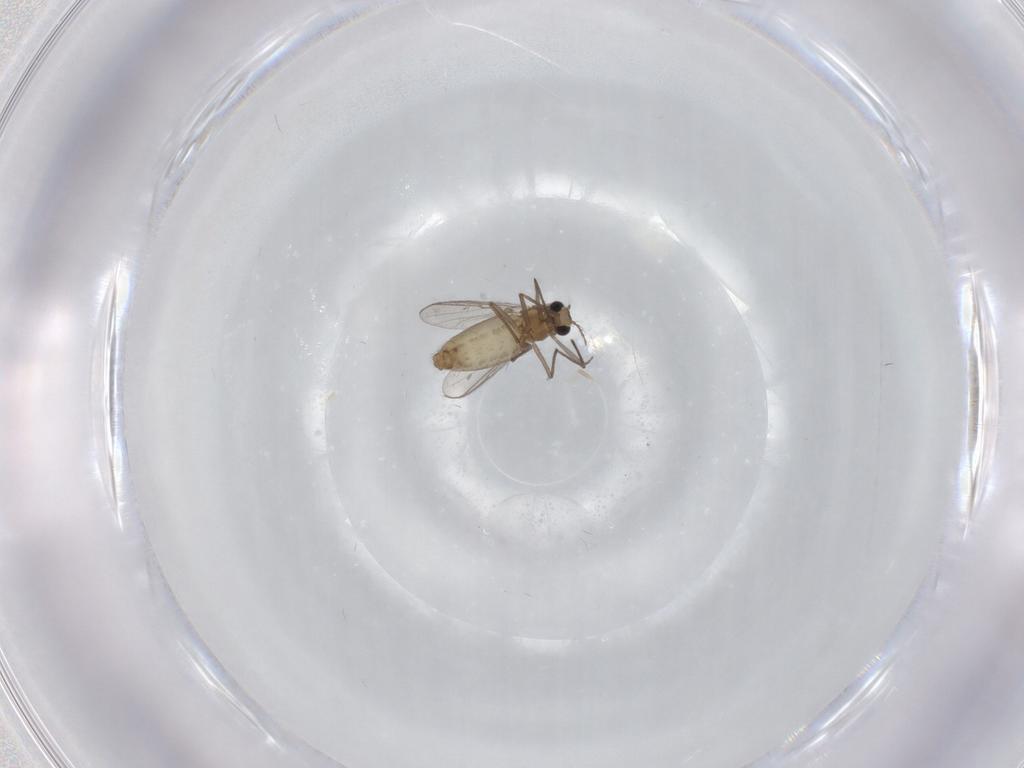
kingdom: Animalia
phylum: Arthropoda
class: Insecta
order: Diptera
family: Chironomidae
